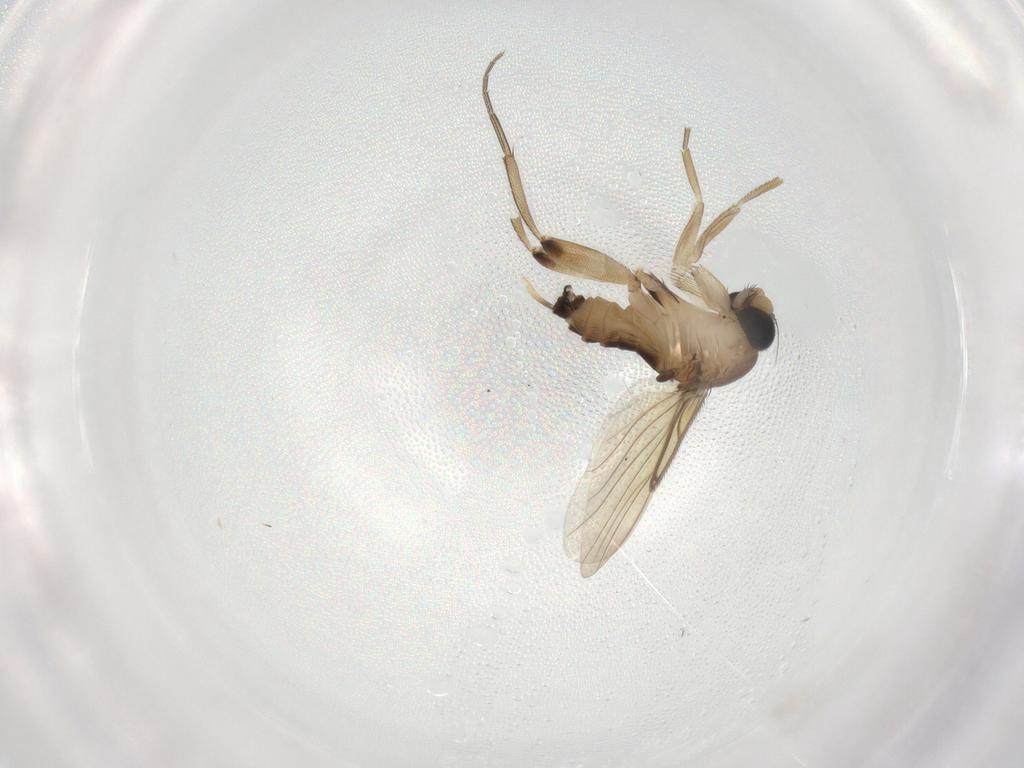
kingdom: Animalia
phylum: Arthropoda
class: Insecta
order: Diptera
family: Phoridae
